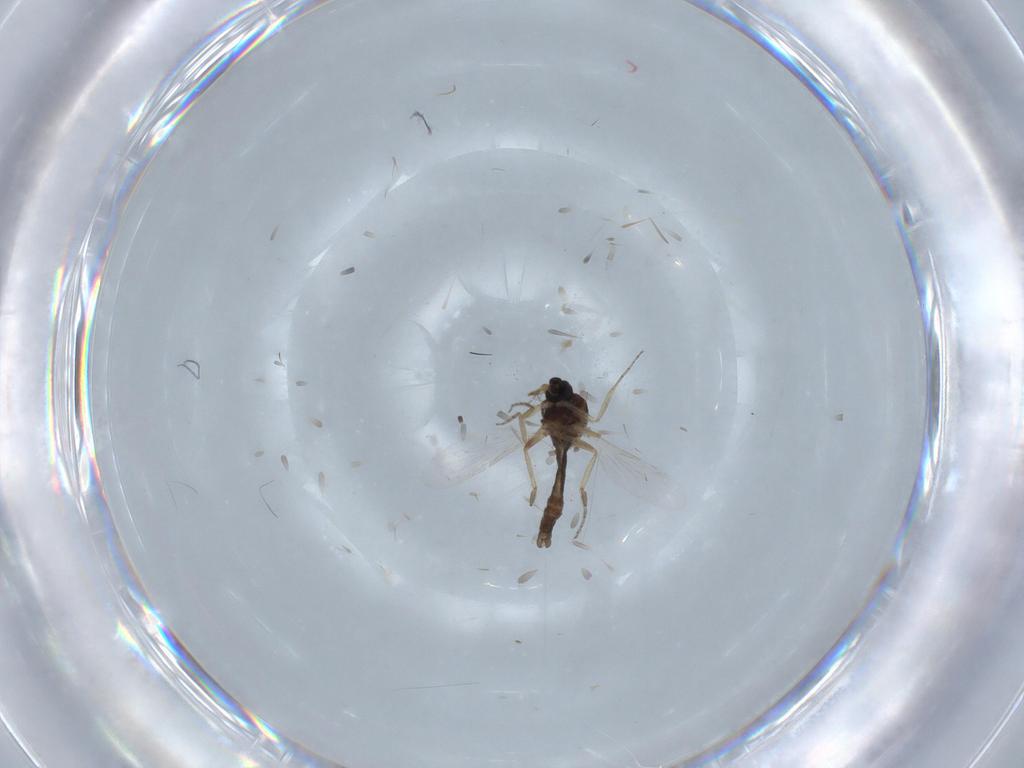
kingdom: Animalia
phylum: Arthropoda
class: Insecta
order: Diptera
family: Ceratopogonidae
